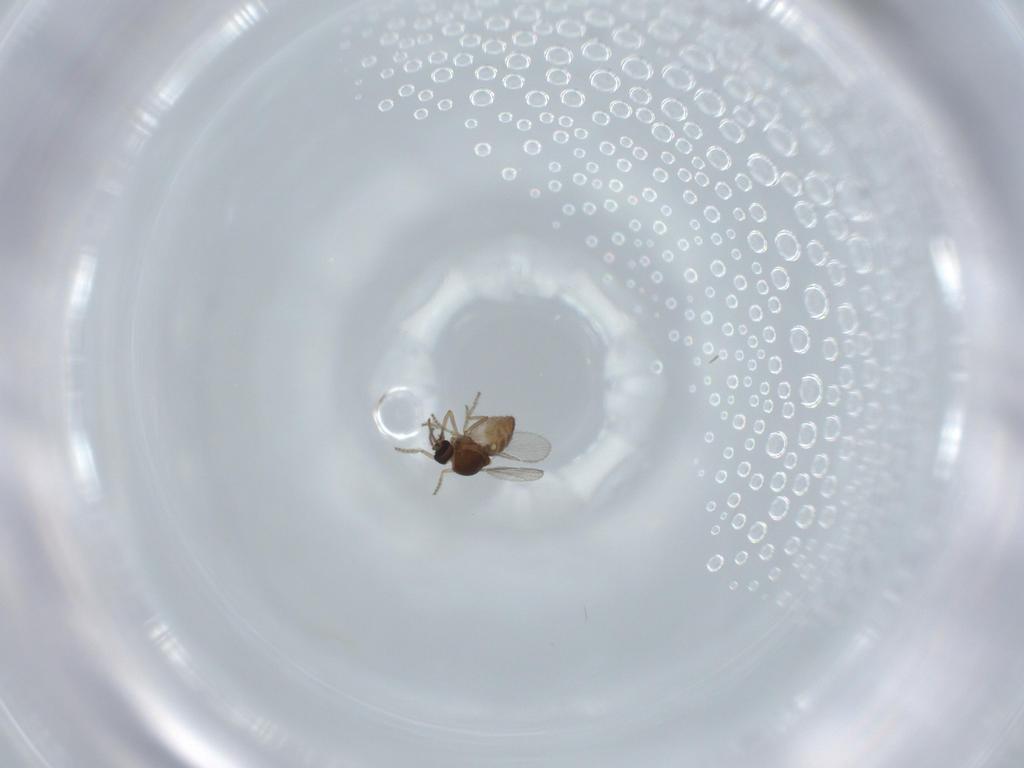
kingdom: Animalia
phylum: Arthropoda
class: Insecta
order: Diptera
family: Ceratopogonidae
